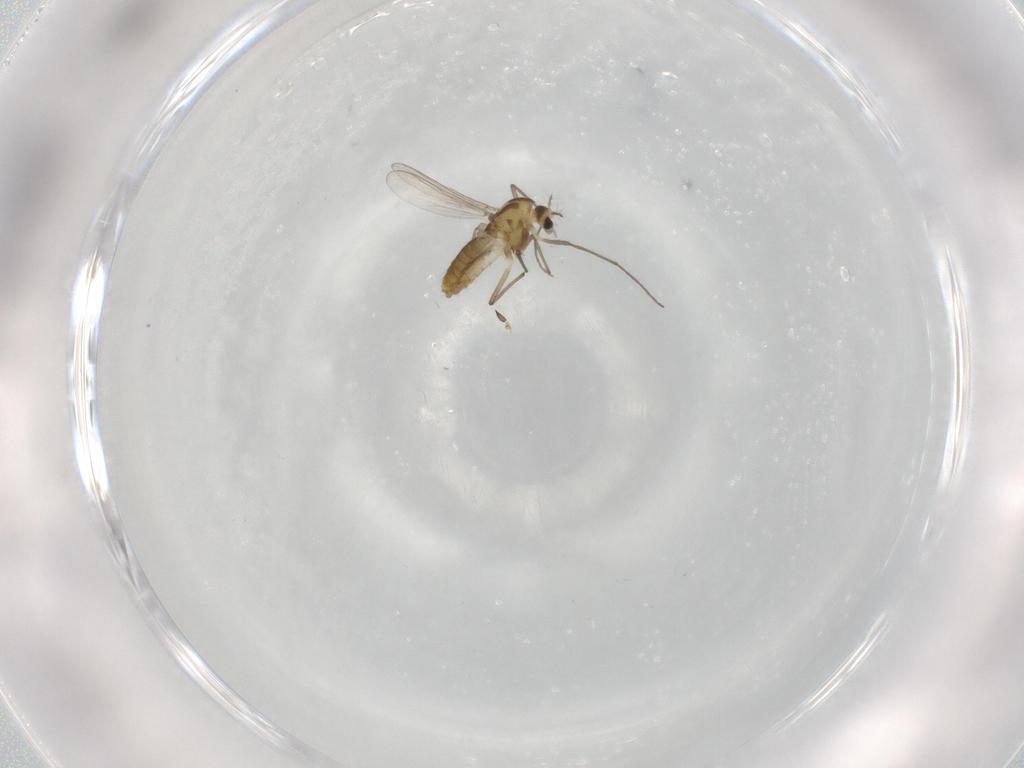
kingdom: Animalia
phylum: Arthropoda
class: Insecta
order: Diptera
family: Chironomidae
